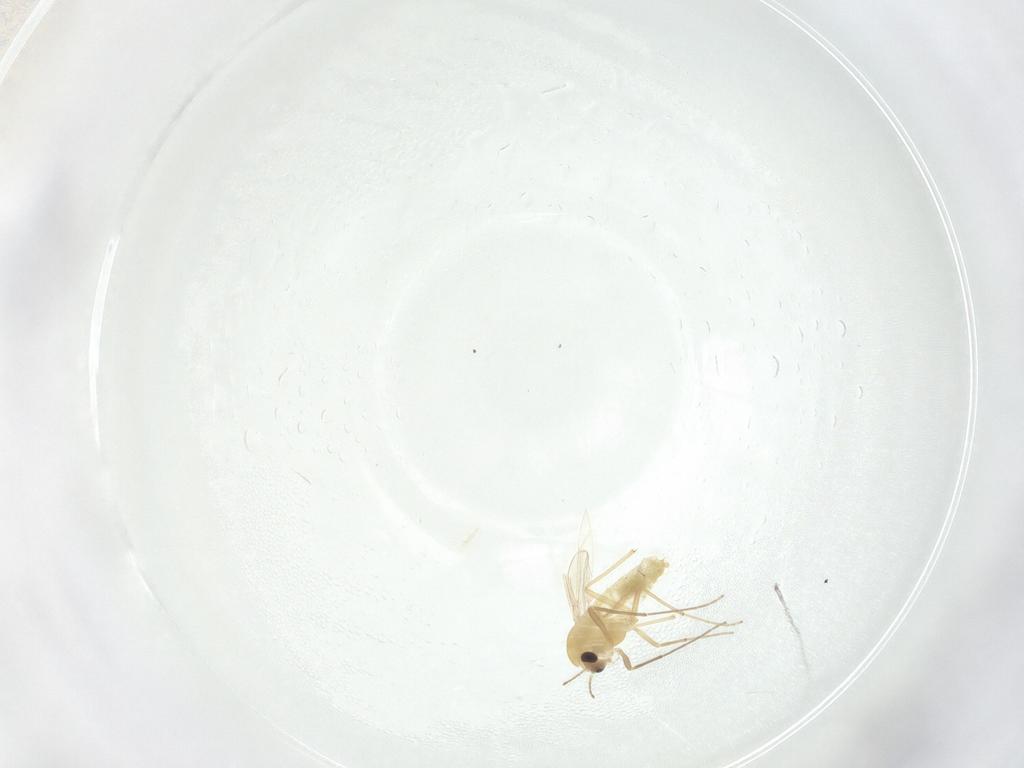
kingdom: Animalia
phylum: Arthropoda
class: Insecta
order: Diptera
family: Chironomidae
